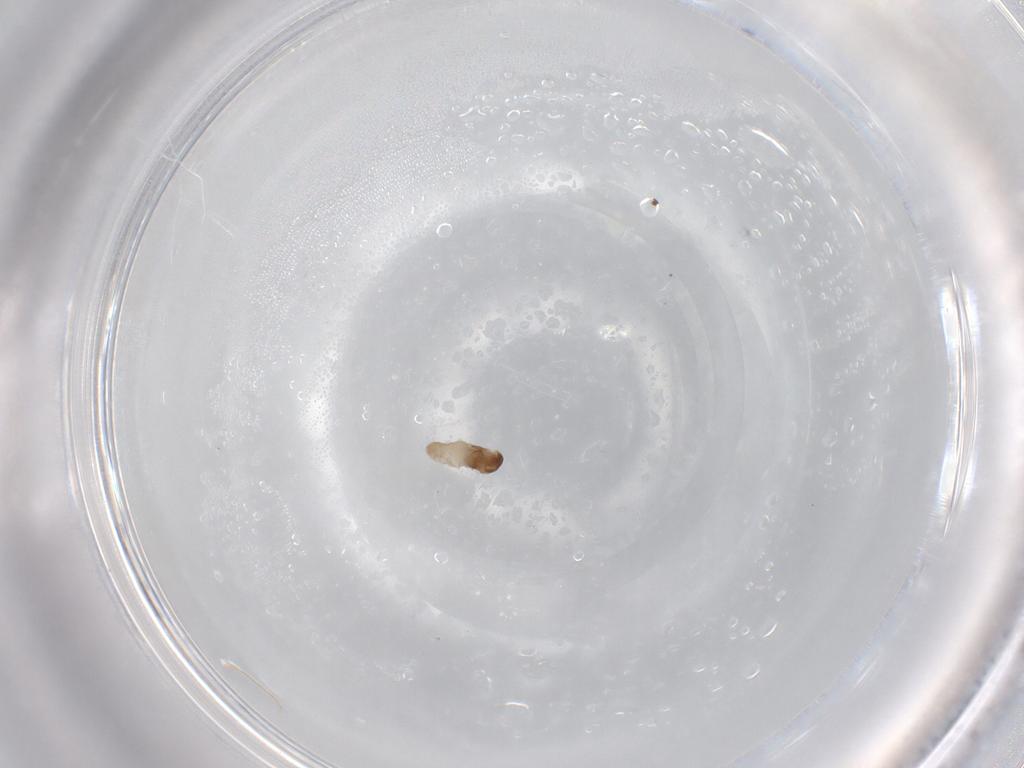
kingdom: Animalia
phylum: Arthropoda
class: Insecta
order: Diptera
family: Cecidomyiidae
